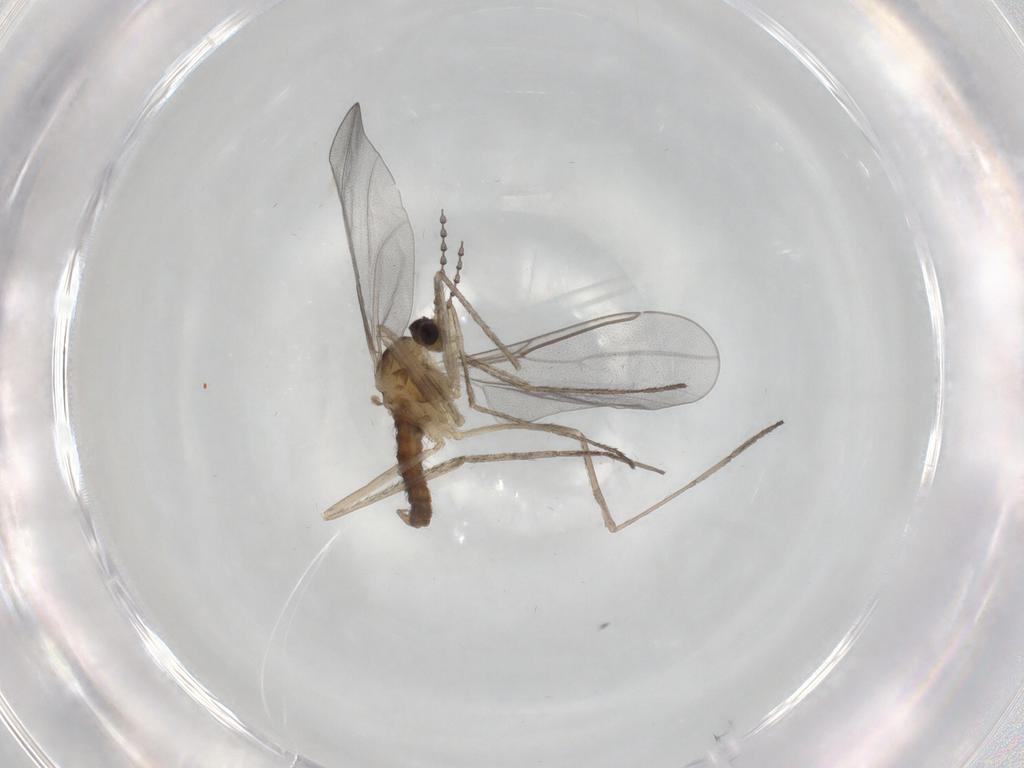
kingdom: Animalia
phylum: Arthropoda
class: Insecta
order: Diptera
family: Cecidomyiidae
